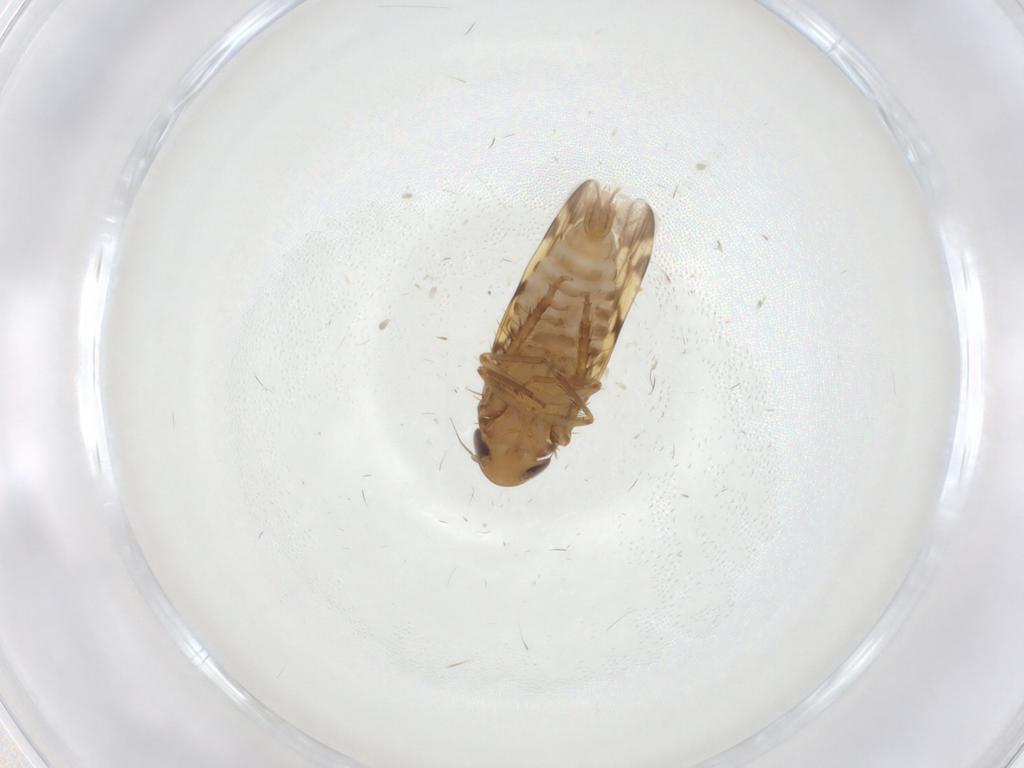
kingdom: Animalia
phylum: Arthropoda
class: Insecta
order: Hemiptera
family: Cicadellidae
